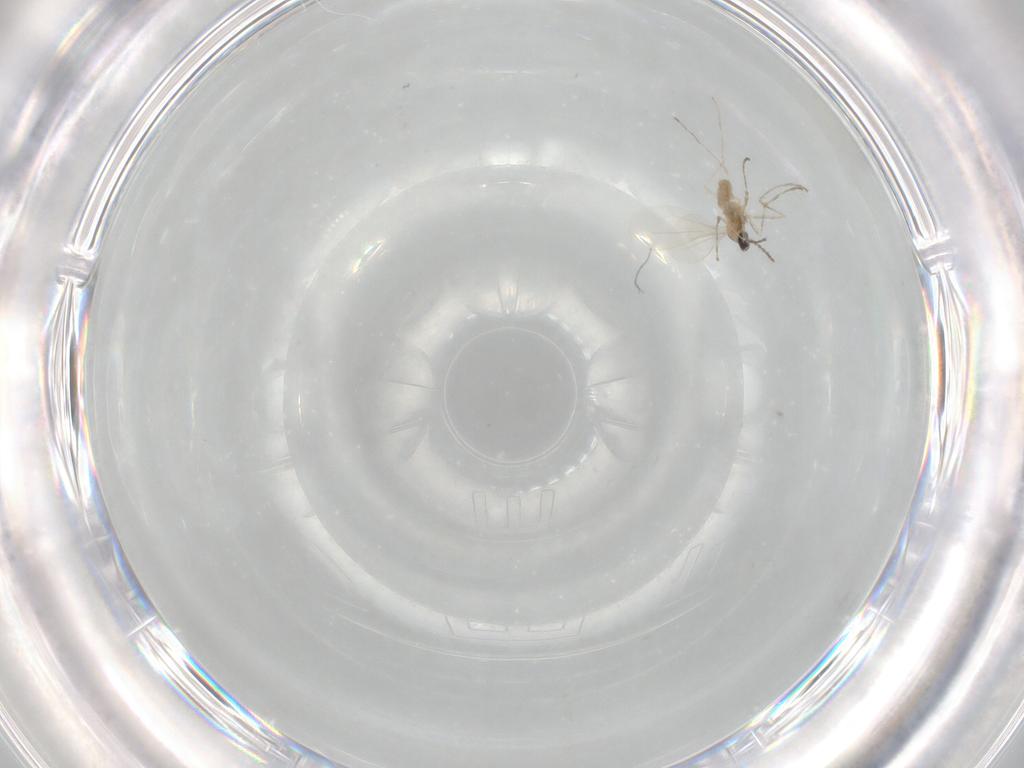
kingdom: Animalia
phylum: Arthropoda
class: Insecta
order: Diptera
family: Cecidomyiidae
